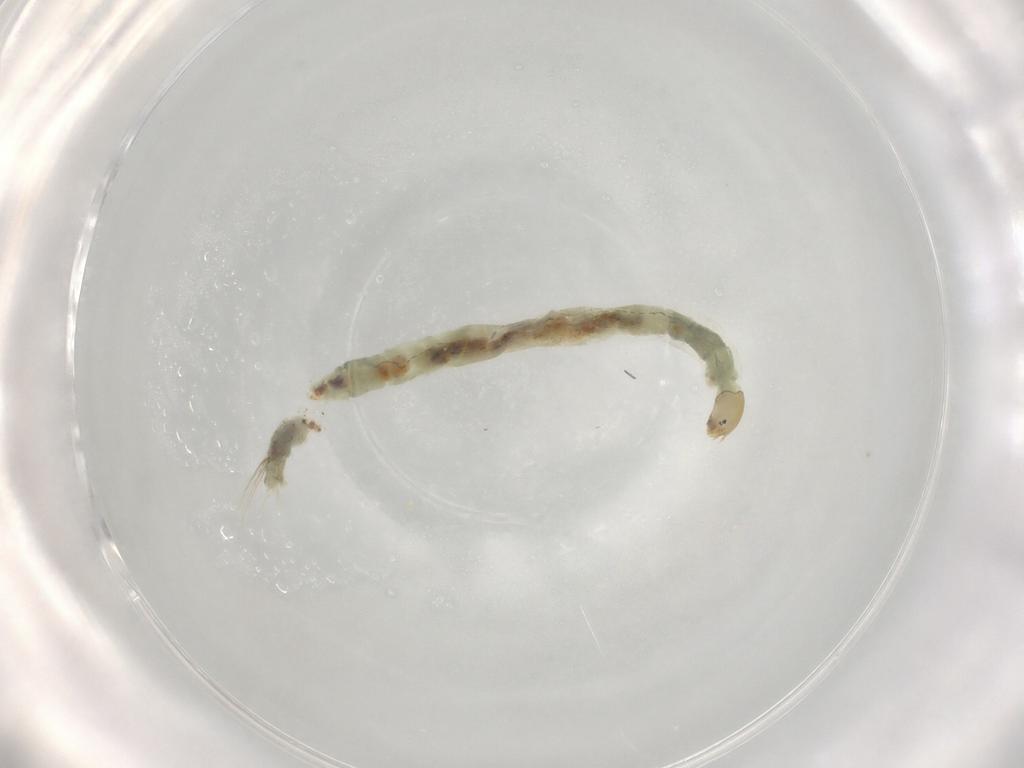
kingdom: Animalia
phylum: Arthropoda
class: Insecta
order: Diptera
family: Chironomidae
